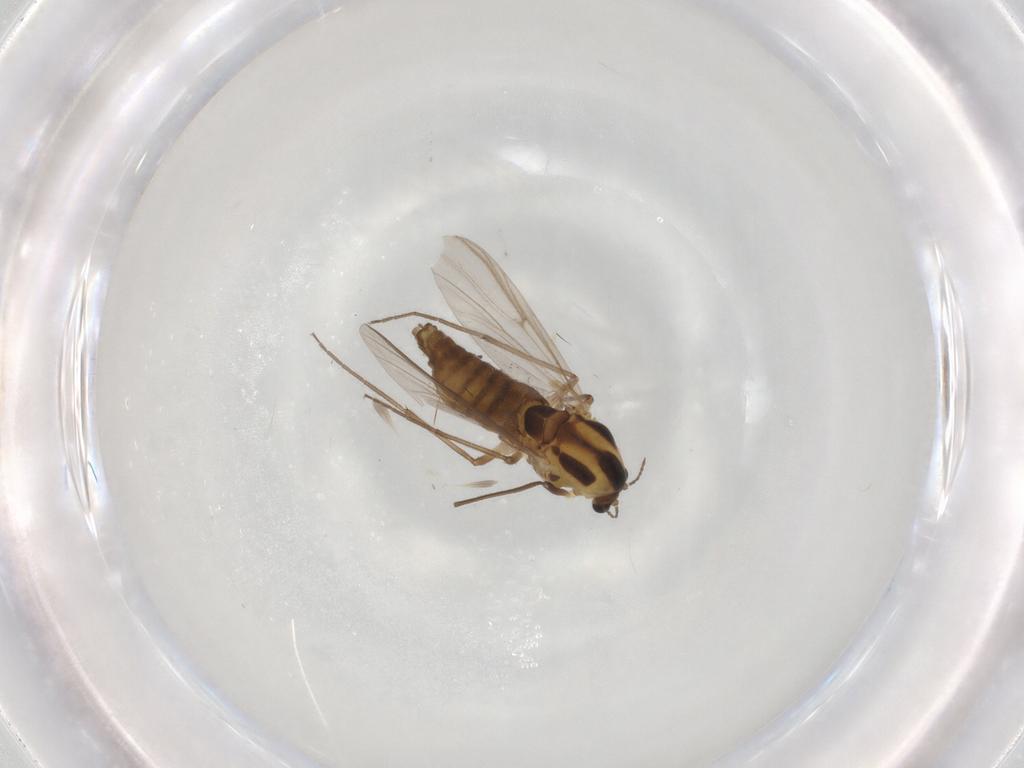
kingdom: Animalia
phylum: Arthropoda
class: Insecta
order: Diptera
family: Chironomidae
